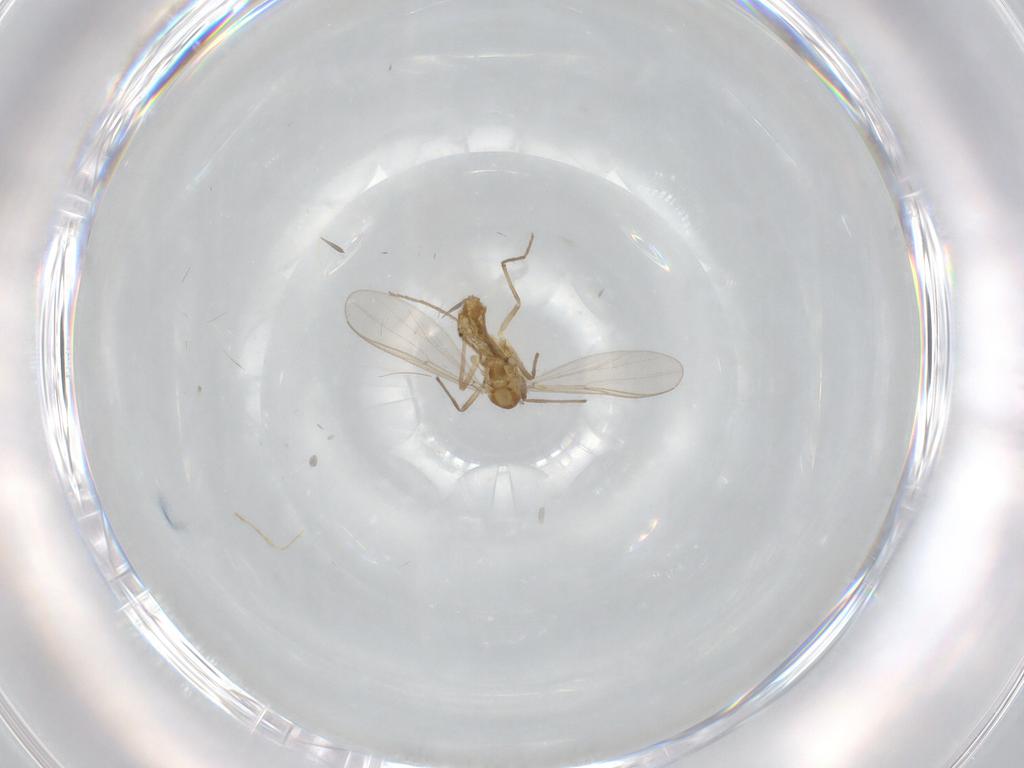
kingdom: Animalia
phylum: Arthropoda
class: Insecta
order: Diptera
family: Chironomidae
